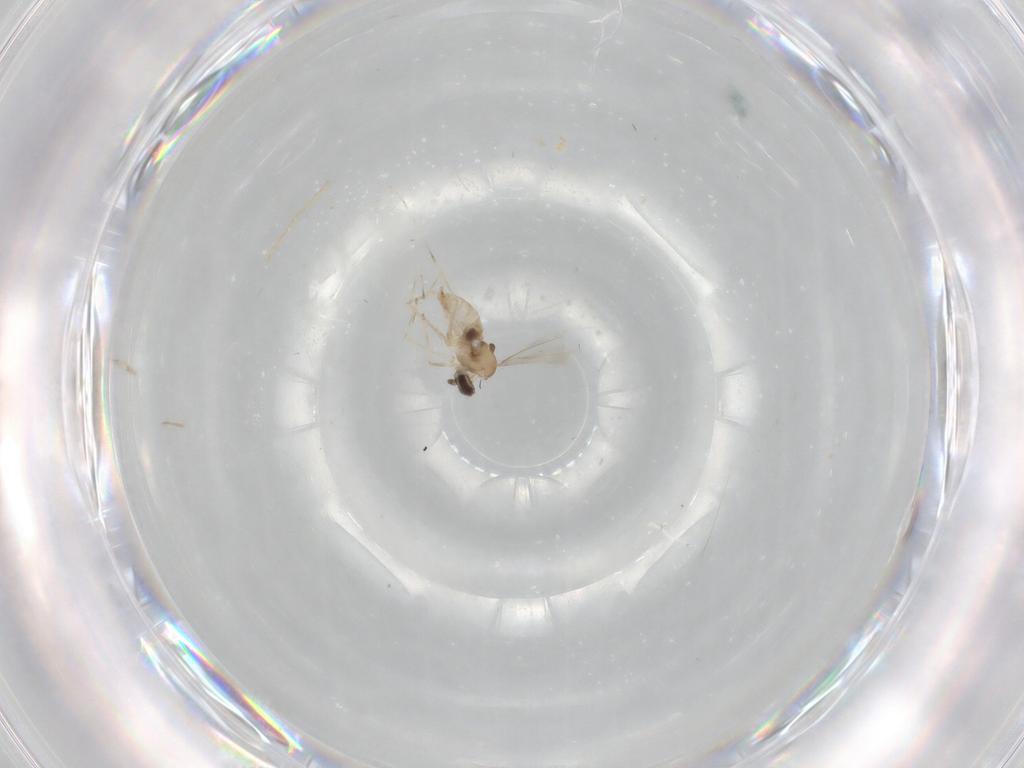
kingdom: Animalia
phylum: Arthropoda
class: Insecta
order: Diptera
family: Cecidomyiidae
